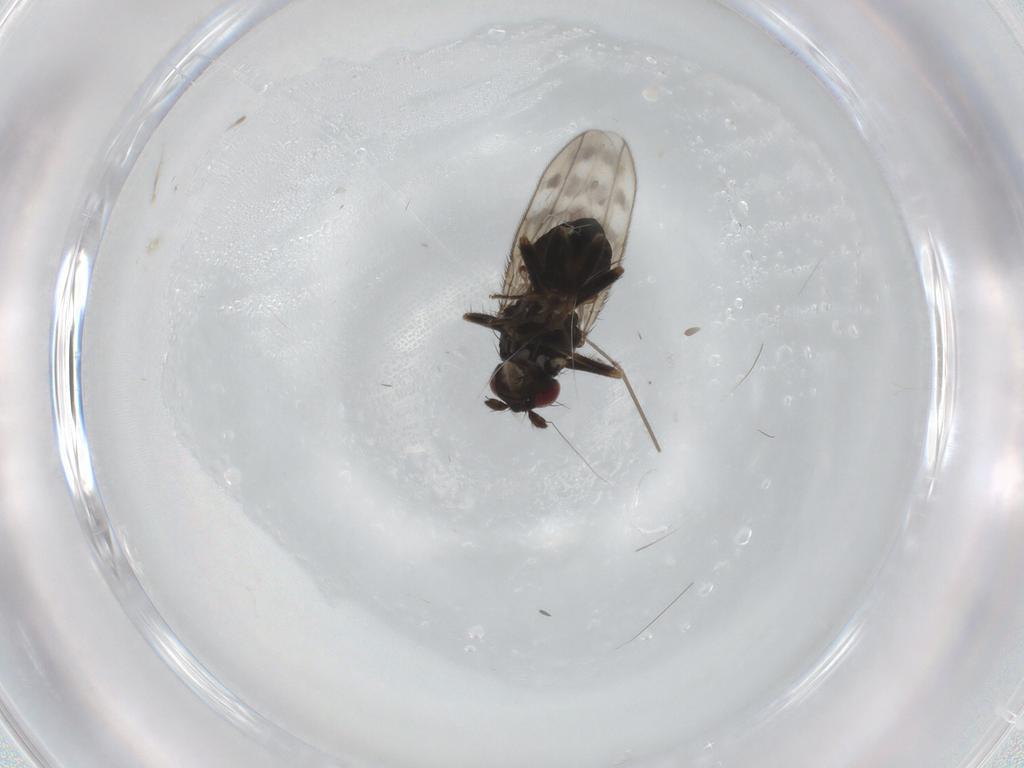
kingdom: Animalia
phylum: Arthropoda
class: Insecta
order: Diptera
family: Sphaeroceridae
